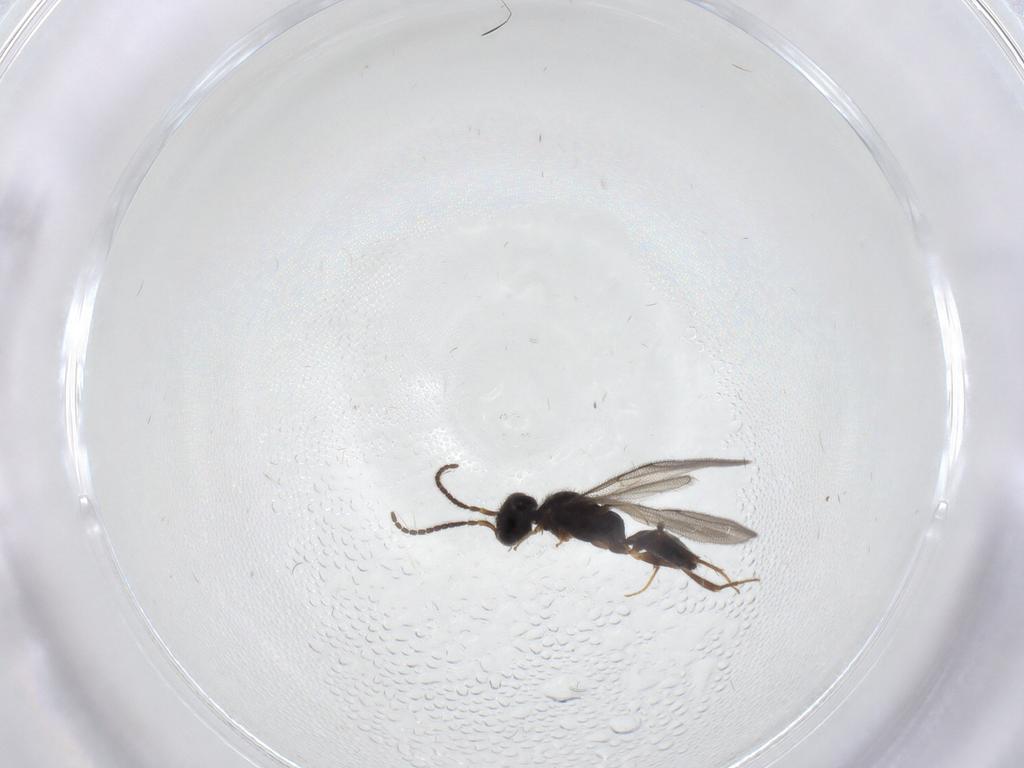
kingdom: Animalia
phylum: Arthropoda
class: Insecta
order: Hymenoptera
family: Bethylidae
